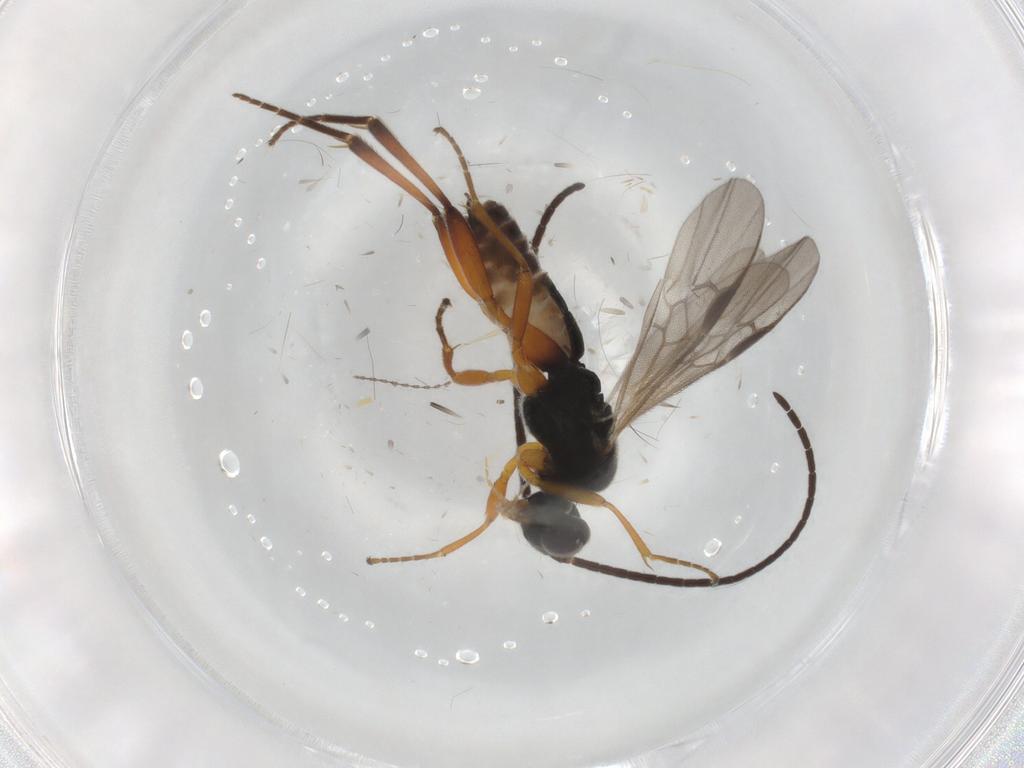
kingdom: Animalia
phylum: Arthropoda
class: Insecta
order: Hymenoptera
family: Braconidae
